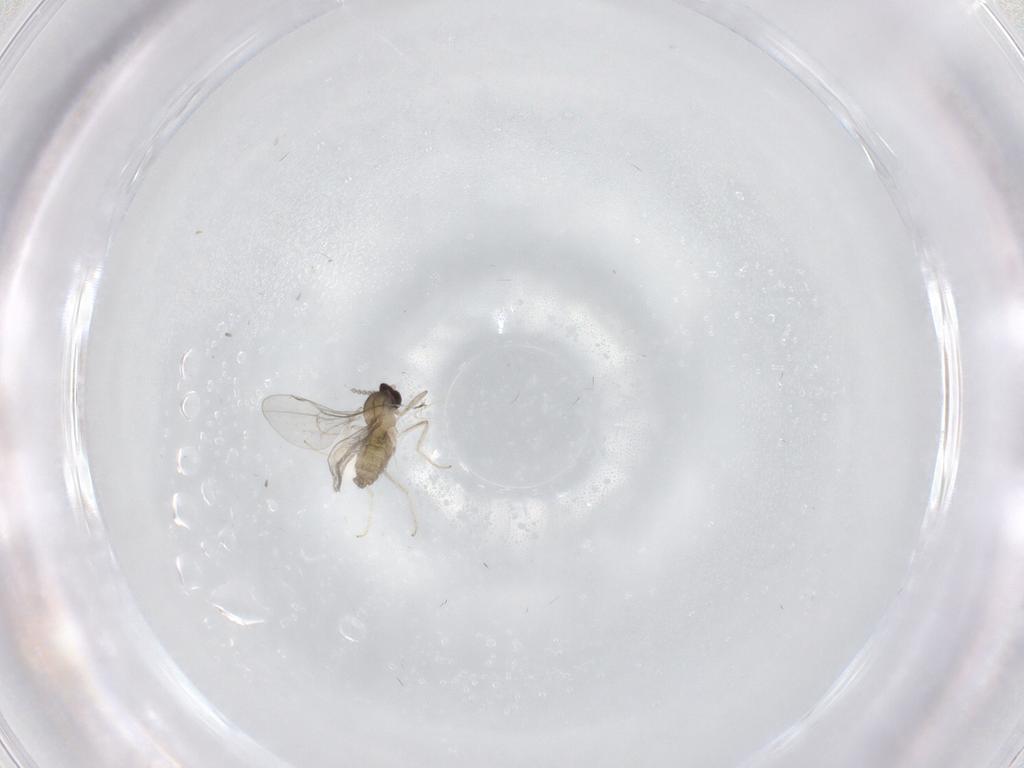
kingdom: Animalia
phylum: Arthropoda
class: Insecta
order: Diptera
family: Cecidomyiidae
